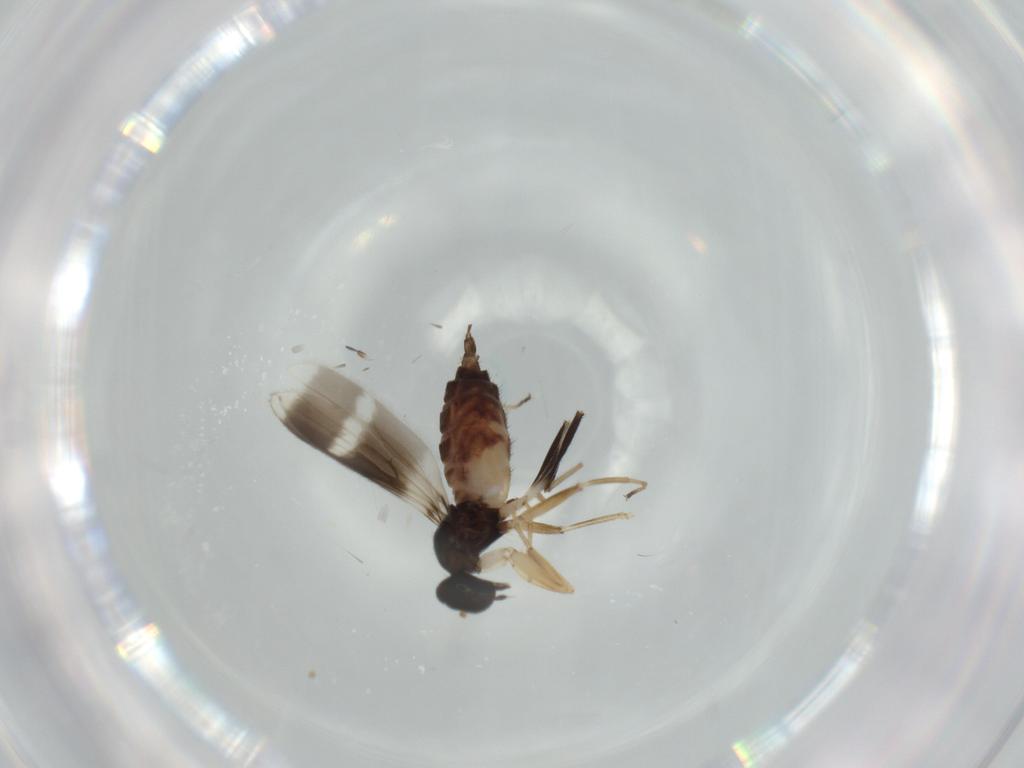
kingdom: Animalia
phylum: Arthropoda
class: Insecta
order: Diptera
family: Hybotidae
